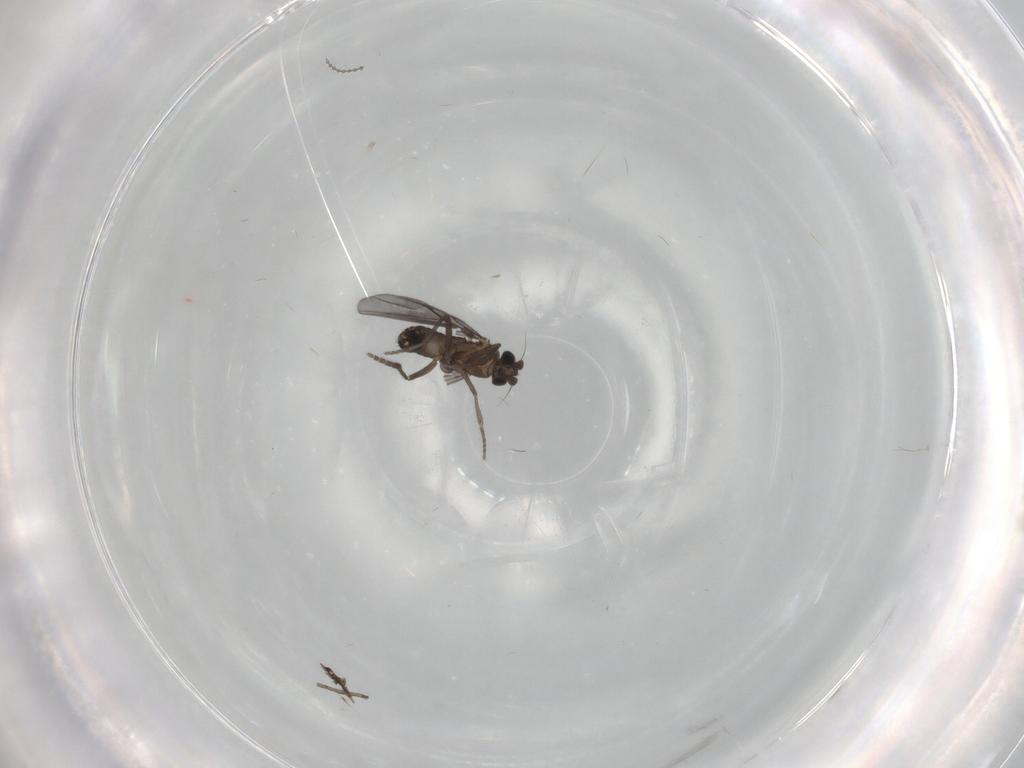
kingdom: Animalia
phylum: Arthropoda
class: Insecta
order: Diptera
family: Phoridae
